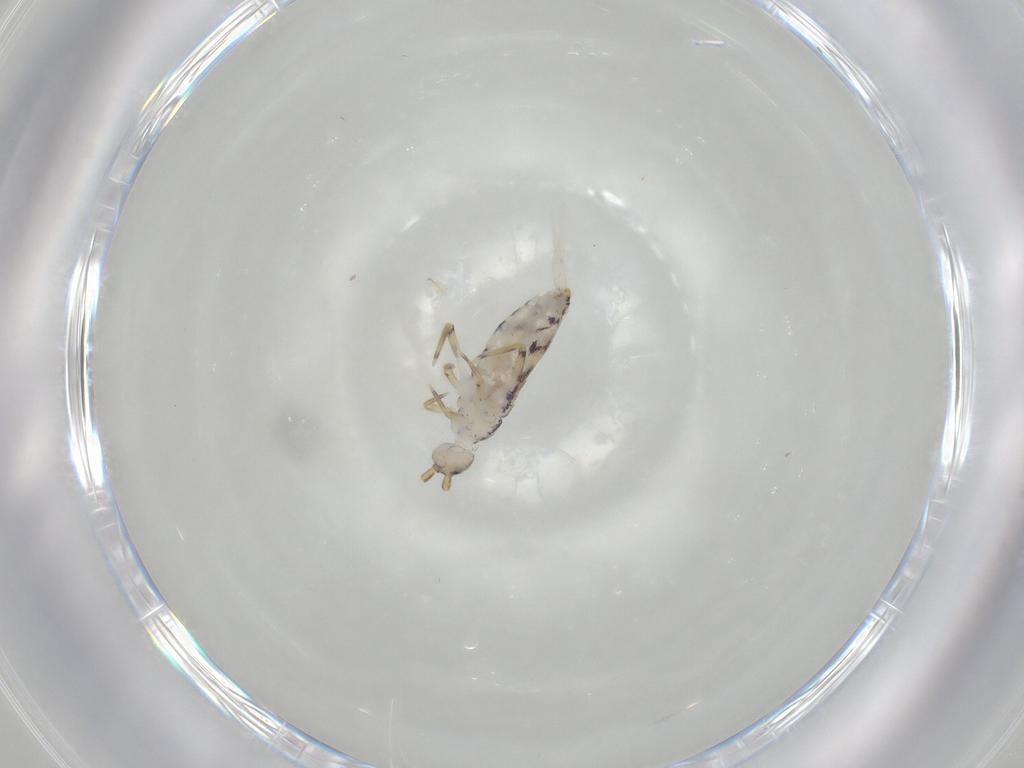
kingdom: Animalia
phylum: Arthropoda
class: Collembola
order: Entomobryomorpha
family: Entomobryidae
